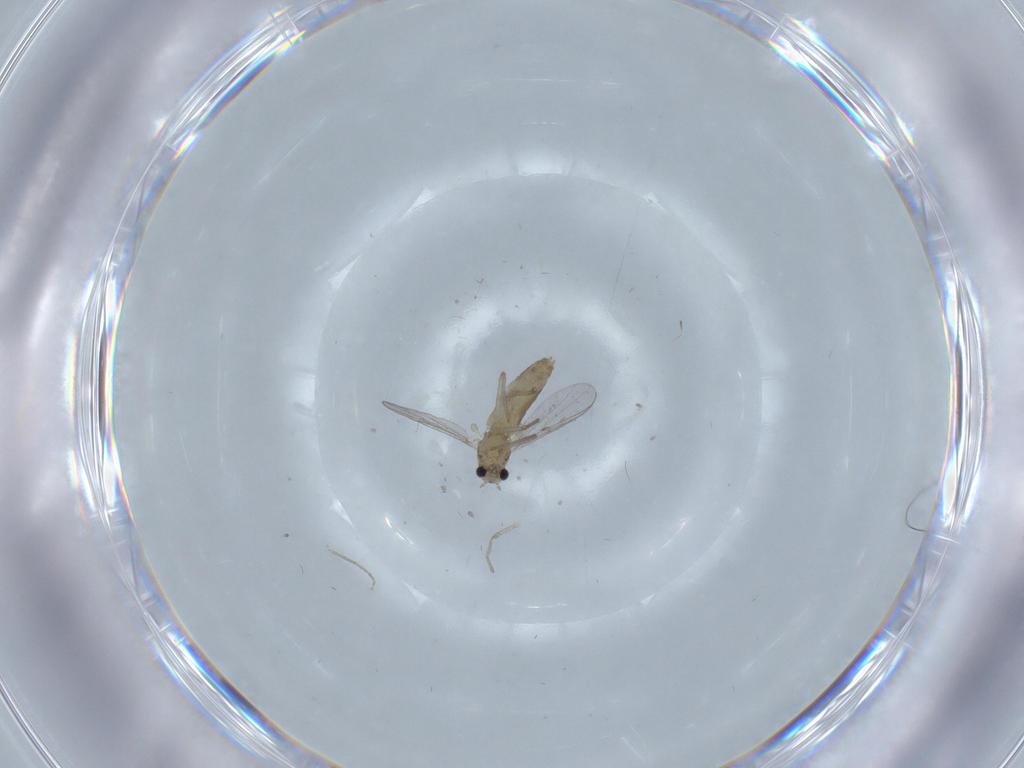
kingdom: Animalia
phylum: Arthropoda
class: Insecta
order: Diptera
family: Chironomidae
